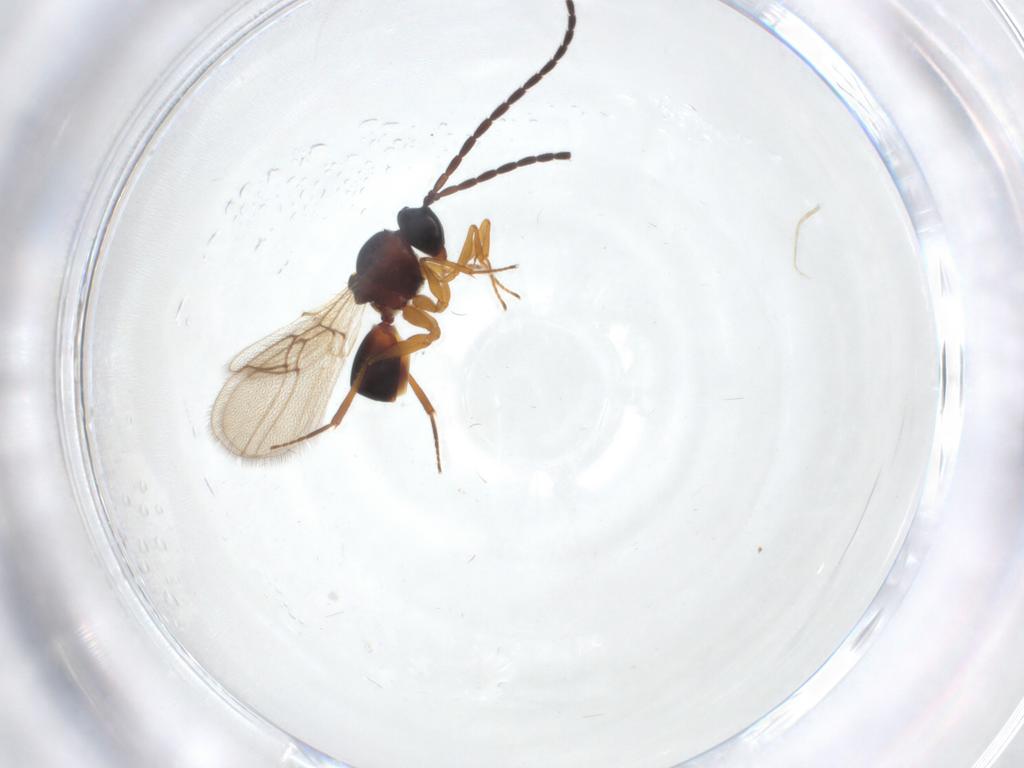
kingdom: Animalia
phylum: Arthropoda
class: Insecta
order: Hymenoptera
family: Figitidae
